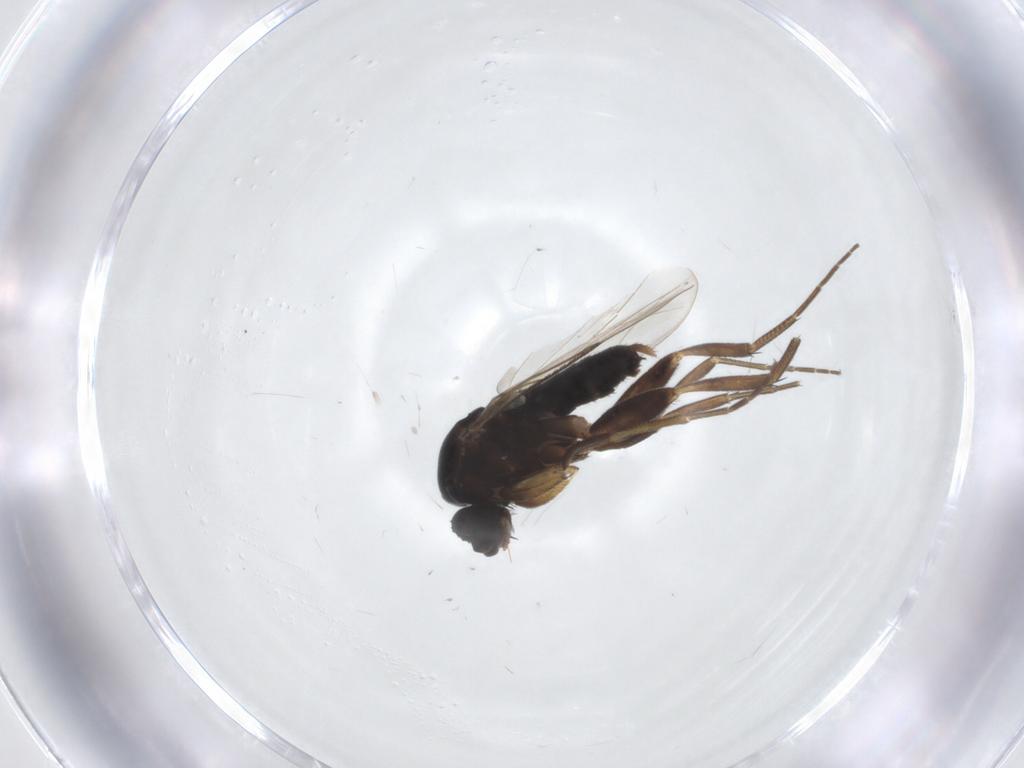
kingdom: Animalia
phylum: Arthropoda
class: Insecta
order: Diptera
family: Phoridae
